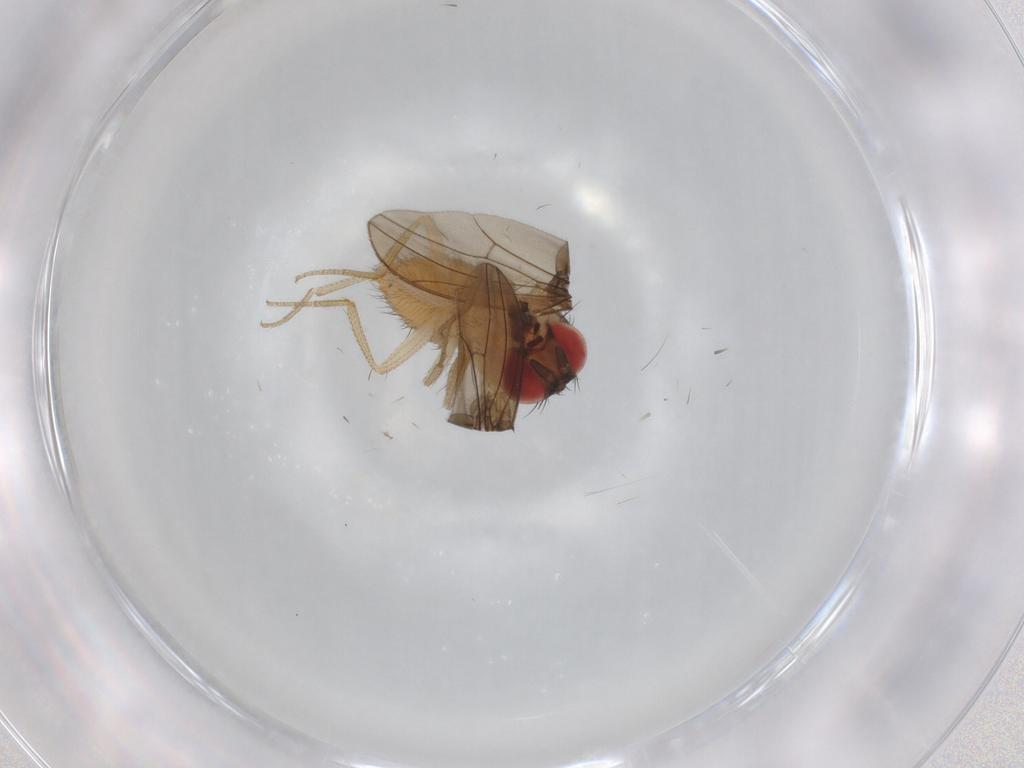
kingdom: Animalia
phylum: Arthropoda
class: Insecta
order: Diptera
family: Drosophilidae
